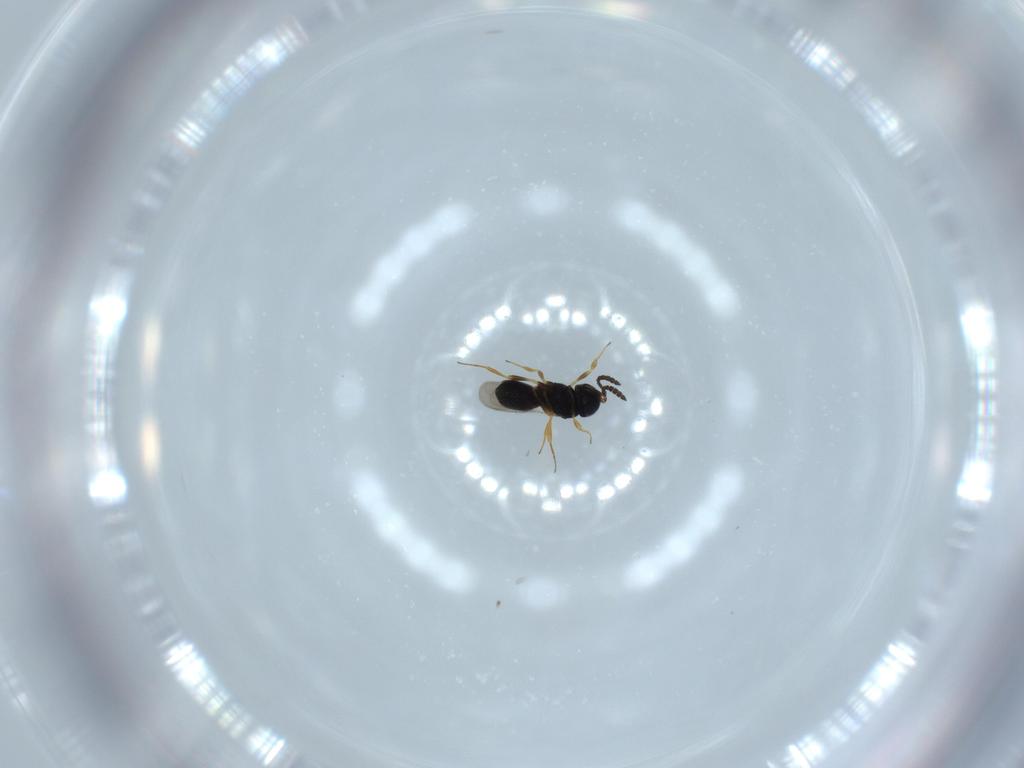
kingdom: Animalia
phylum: Arthropoda
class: Insecta
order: Hymenoptera
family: Scelionidae
